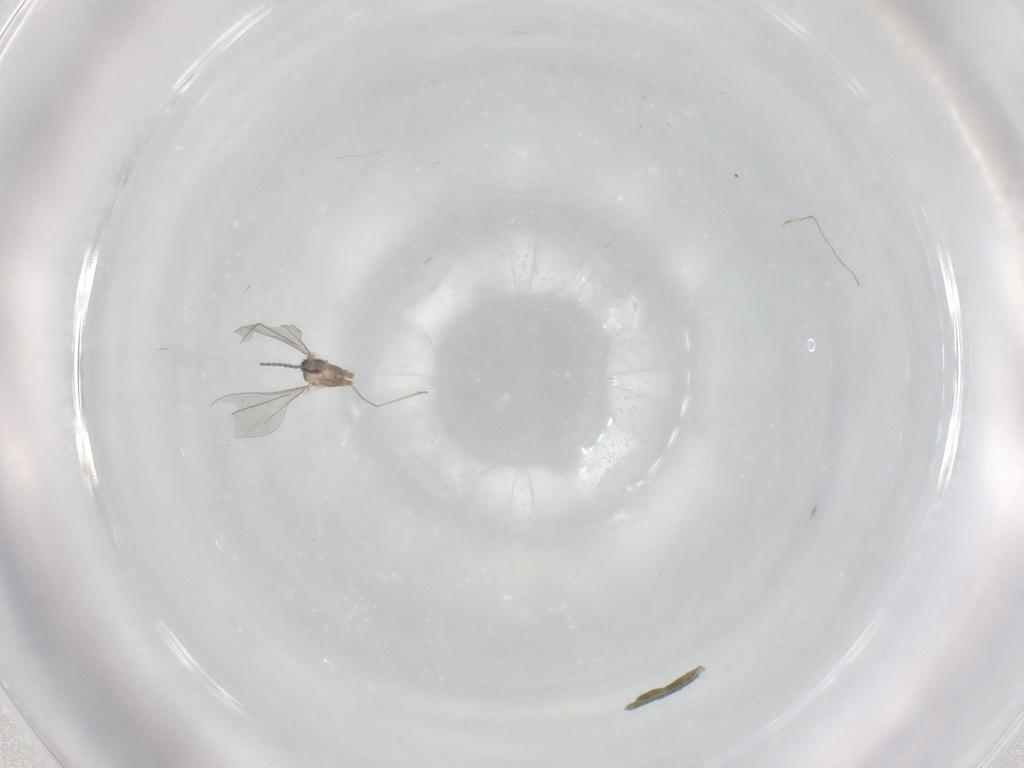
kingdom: Animalia
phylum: Arthropoda
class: Insecta
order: Diptera
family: Cecidomyiidae
